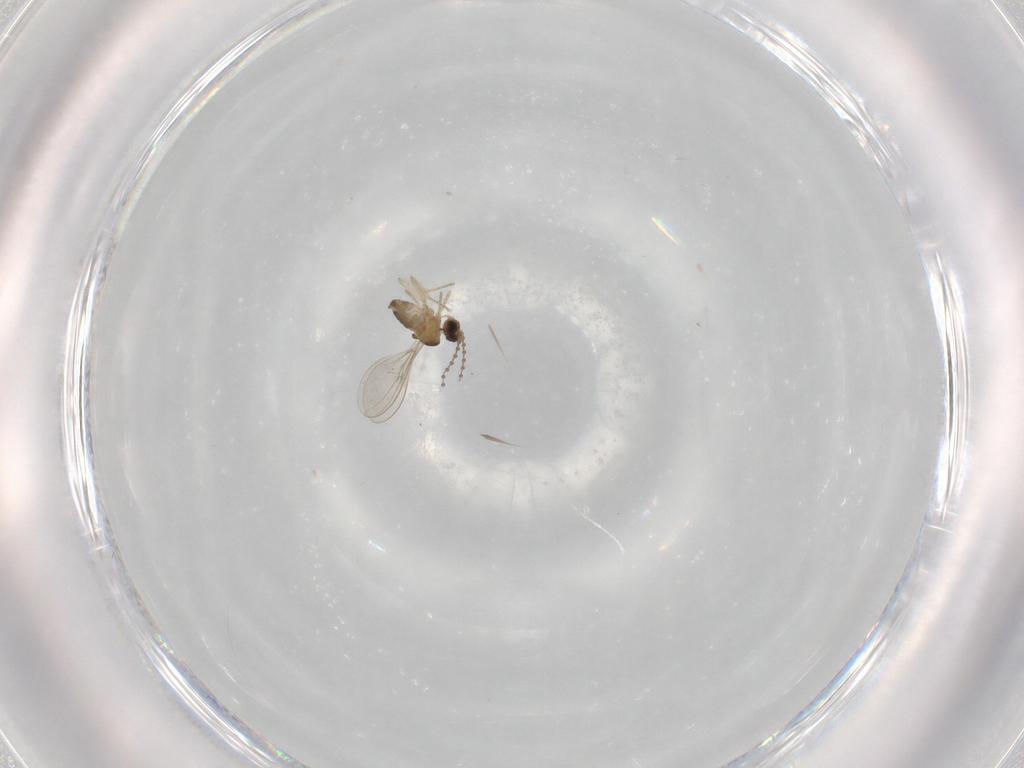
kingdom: Animalia
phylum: Arthropoda
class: Insecta
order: Diptera
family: Cecidomyiidae
